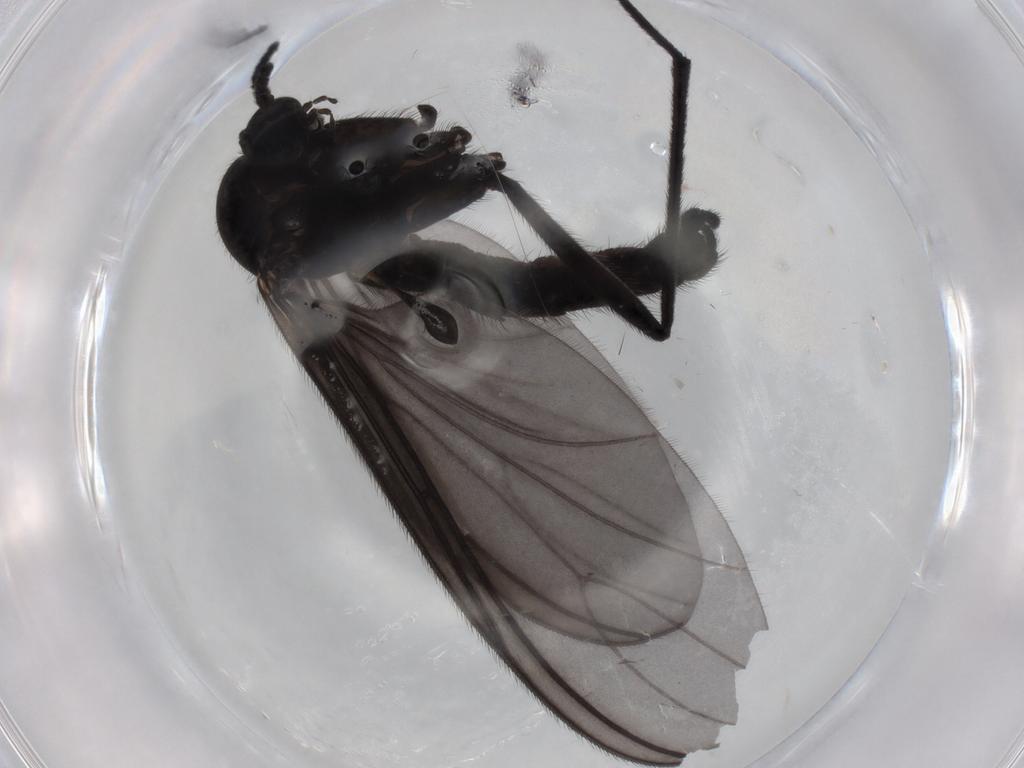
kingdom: Animalia
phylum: Arthropoda
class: Insecta
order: Diptera
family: Sciaridae
